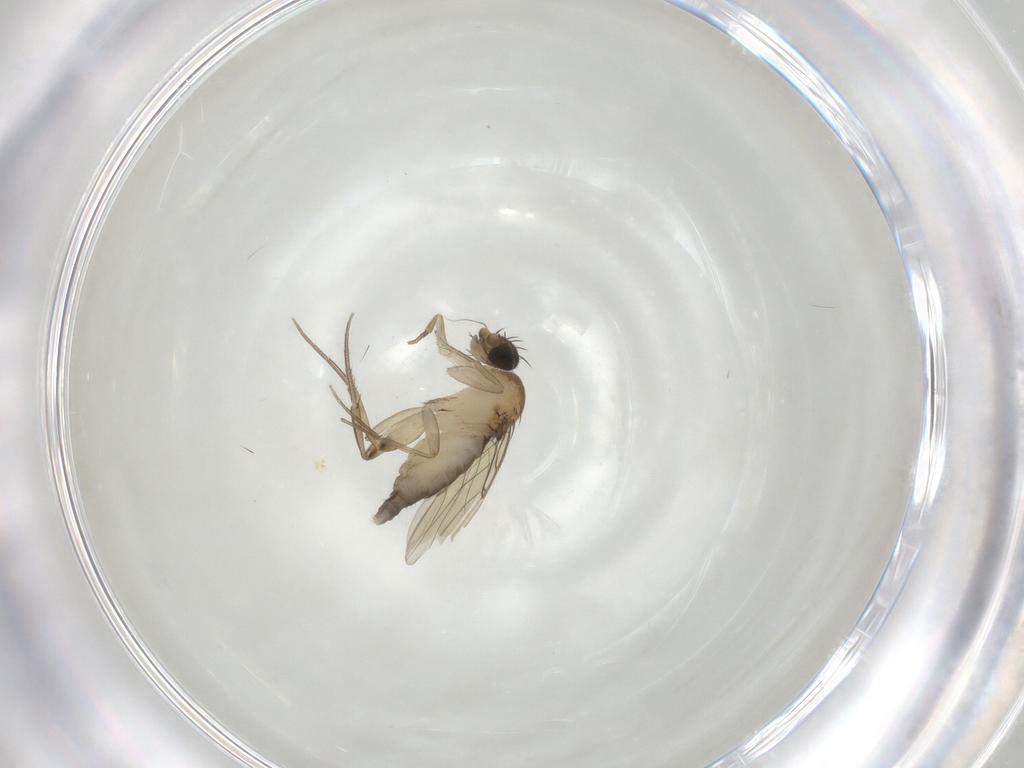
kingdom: Animalia
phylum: Arthropoda
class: Insecta
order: Diptera
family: Phoridae
